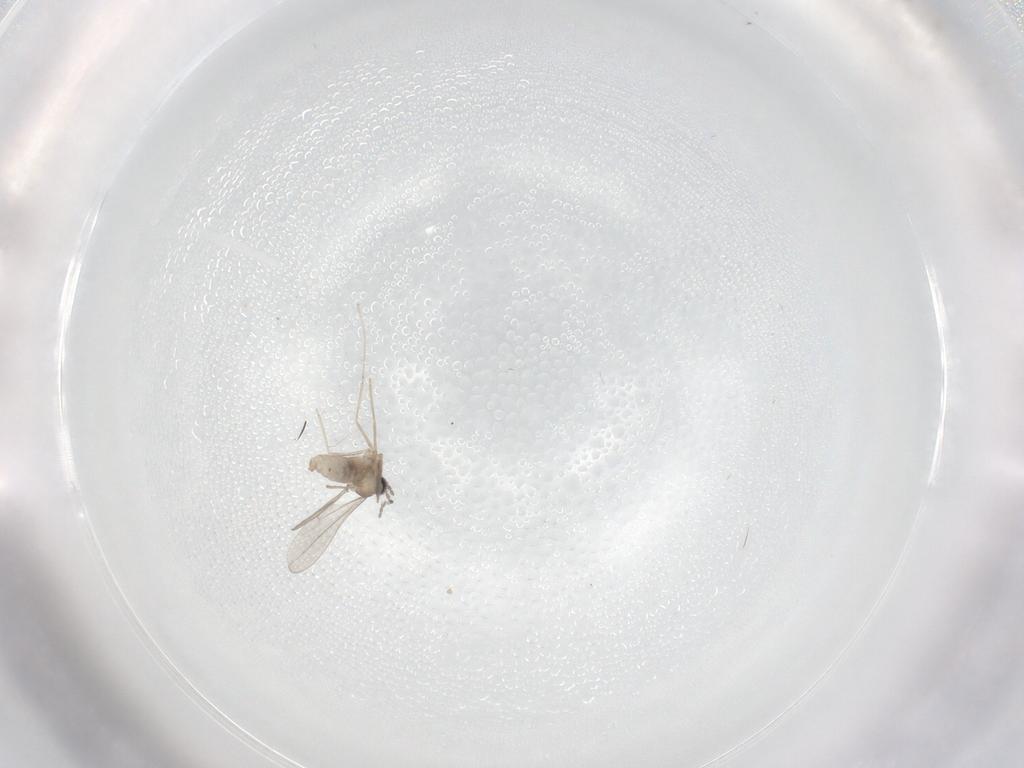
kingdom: Animalia
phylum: Arthropoda
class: Insecta
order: Diptera
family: Cecidomyiidae
